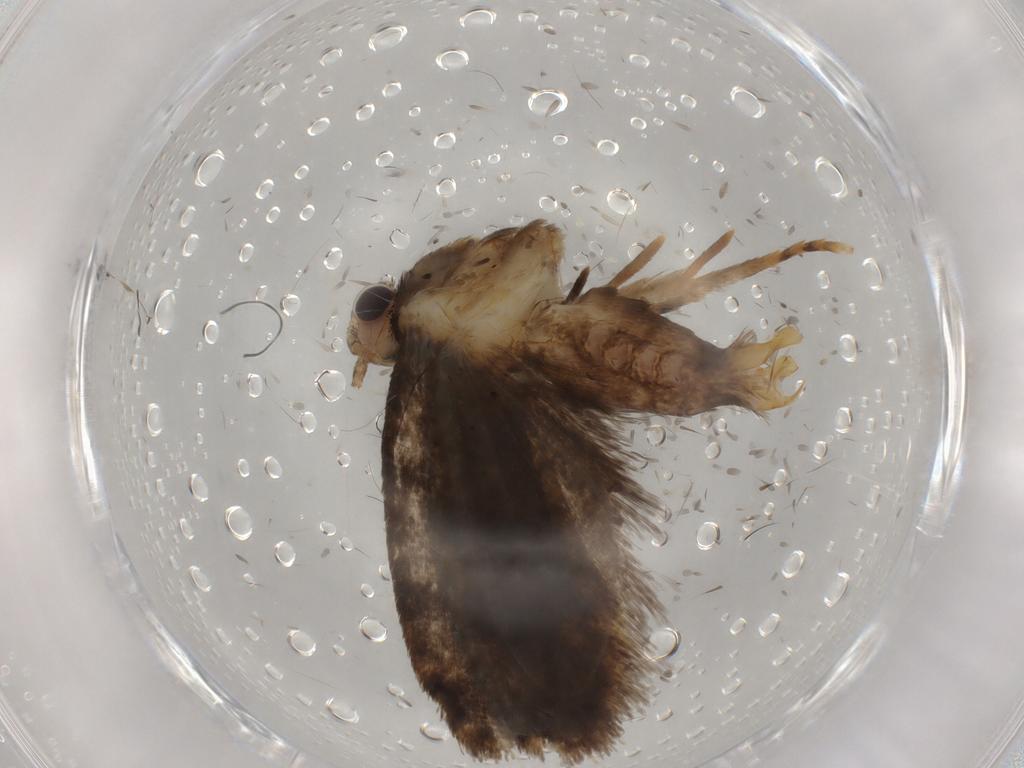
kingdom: Animalia
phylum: Arthropoda
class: Insecta
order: Lepidoptera
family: Tineidae
